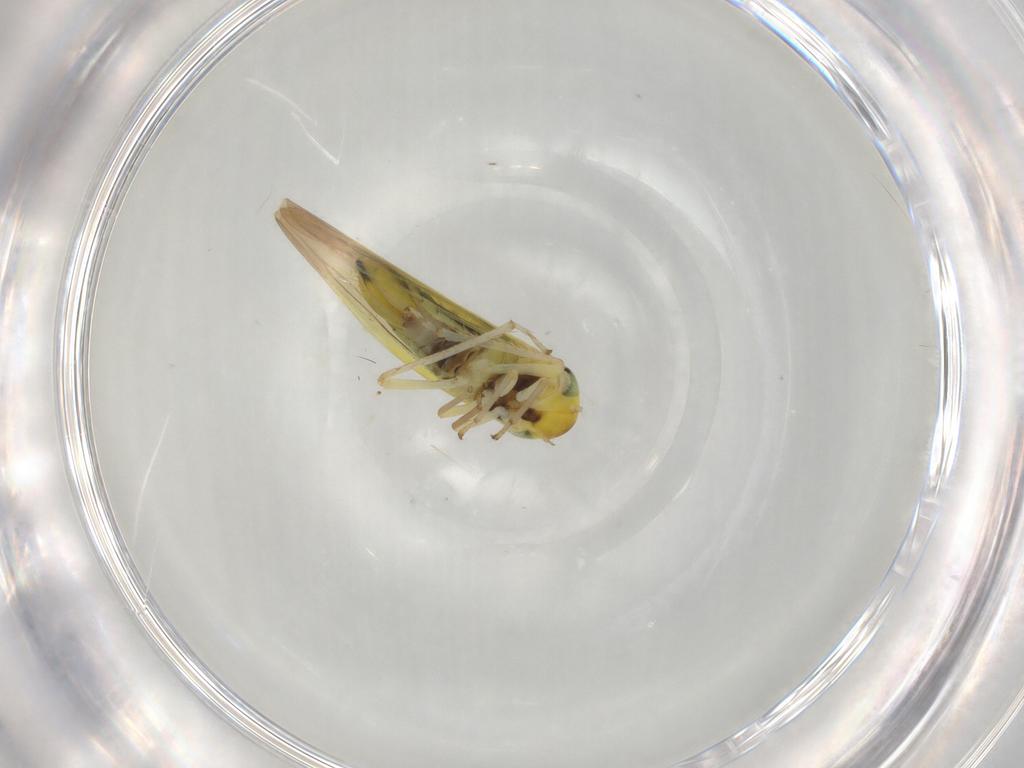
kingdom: Animalia
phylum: Arthropoda
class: Insecta
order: Hemiptera
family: Cicadellidae
